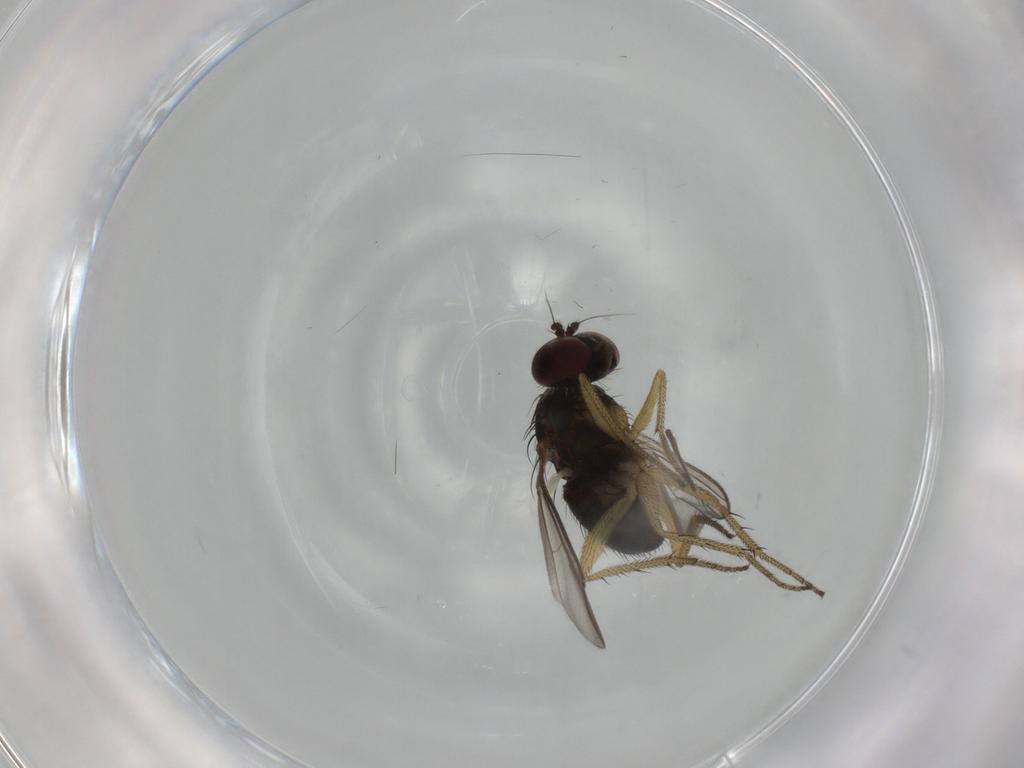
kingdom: Animalia
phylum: Arthropoda
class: Insecta
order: Diptera
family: Dolichopodidae
